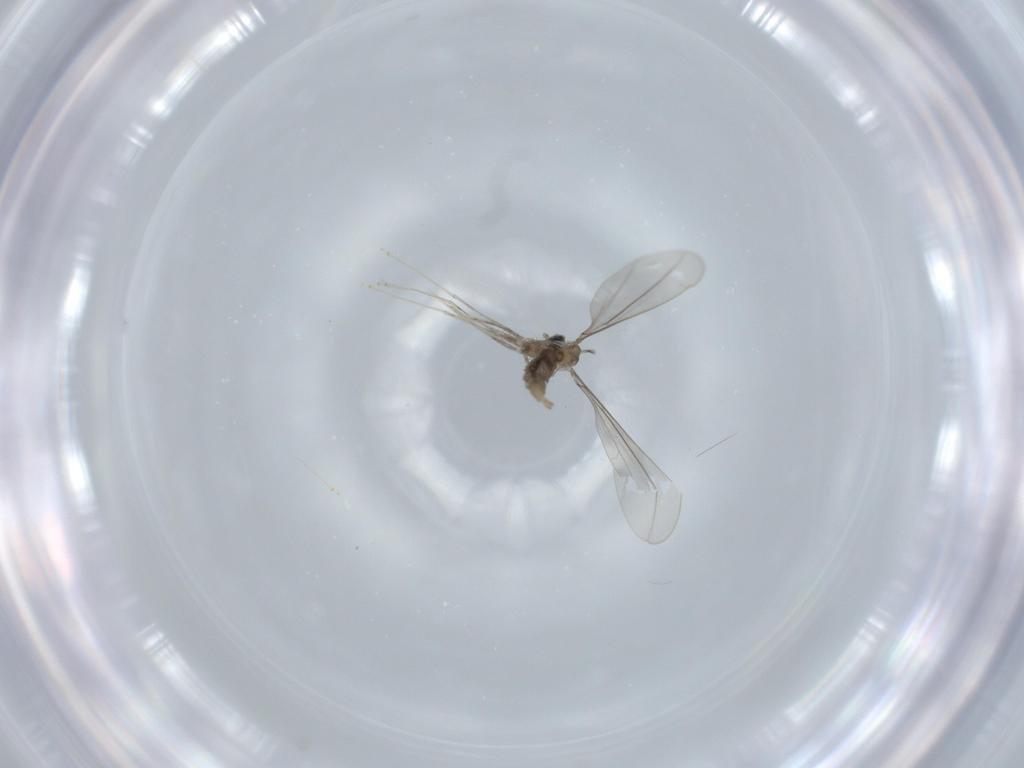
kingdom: Animalia
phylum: Arthropoda
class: Insecta
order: Diptera
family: Cecidomyiidae
